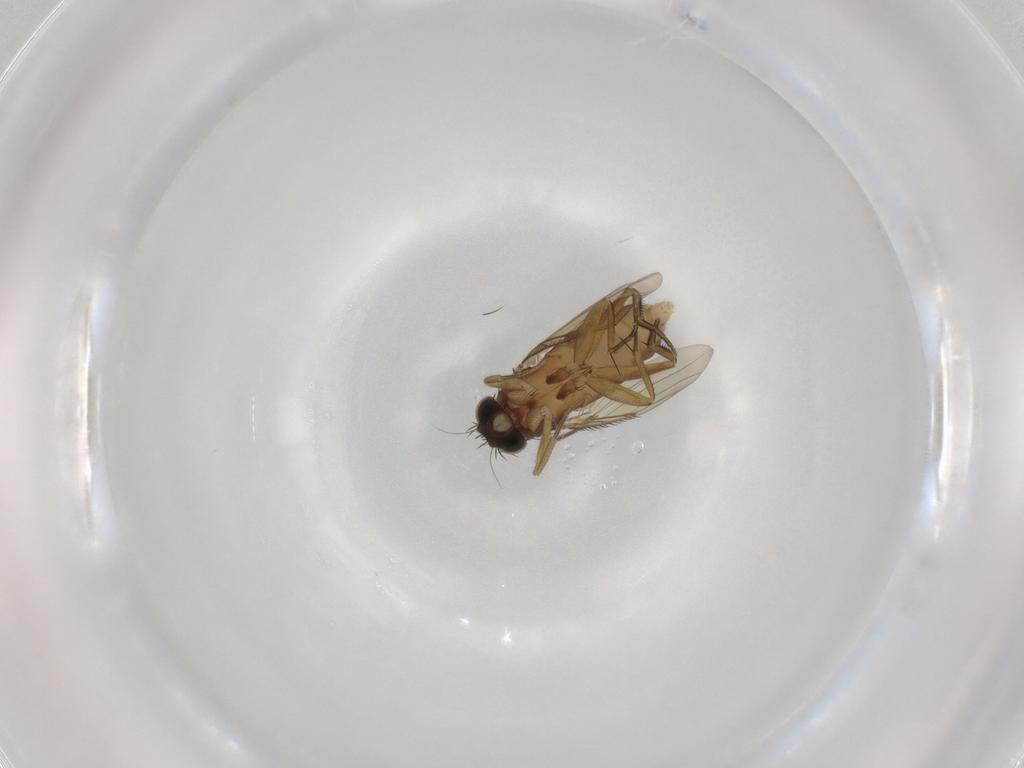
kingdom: Animalia
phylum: Arthropoda
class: Insecta
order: Diptera
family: Phoridae
